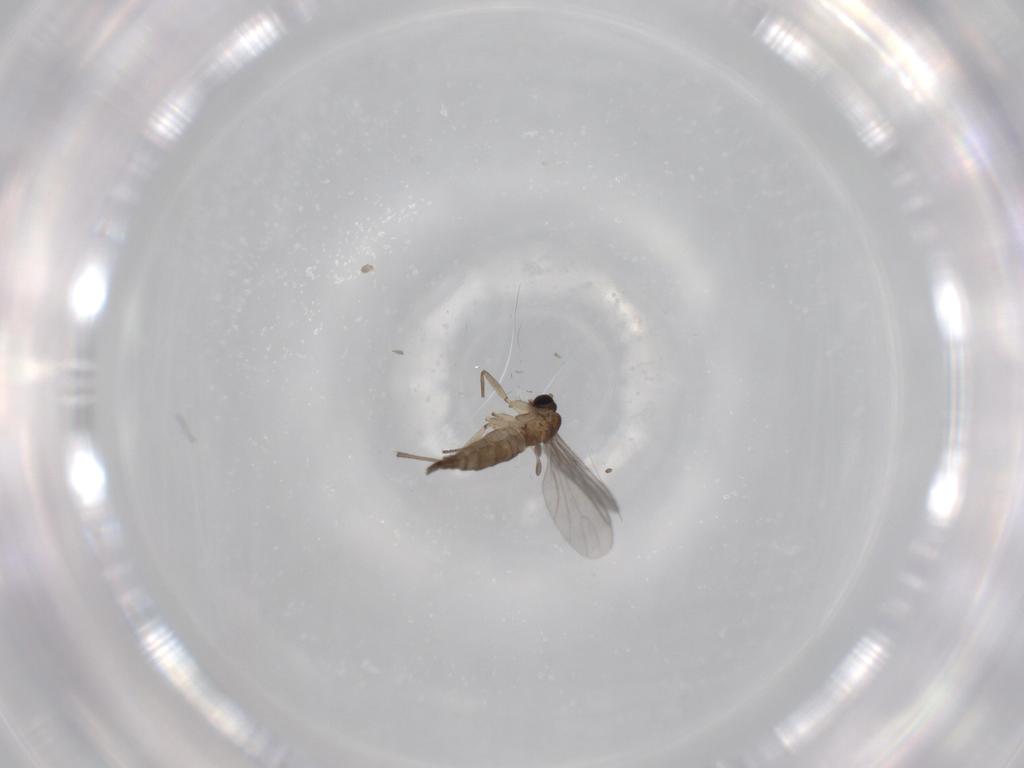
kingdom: Animalia
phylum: Arthropoda
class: Insecta
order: Diptera
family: Sciaridae
